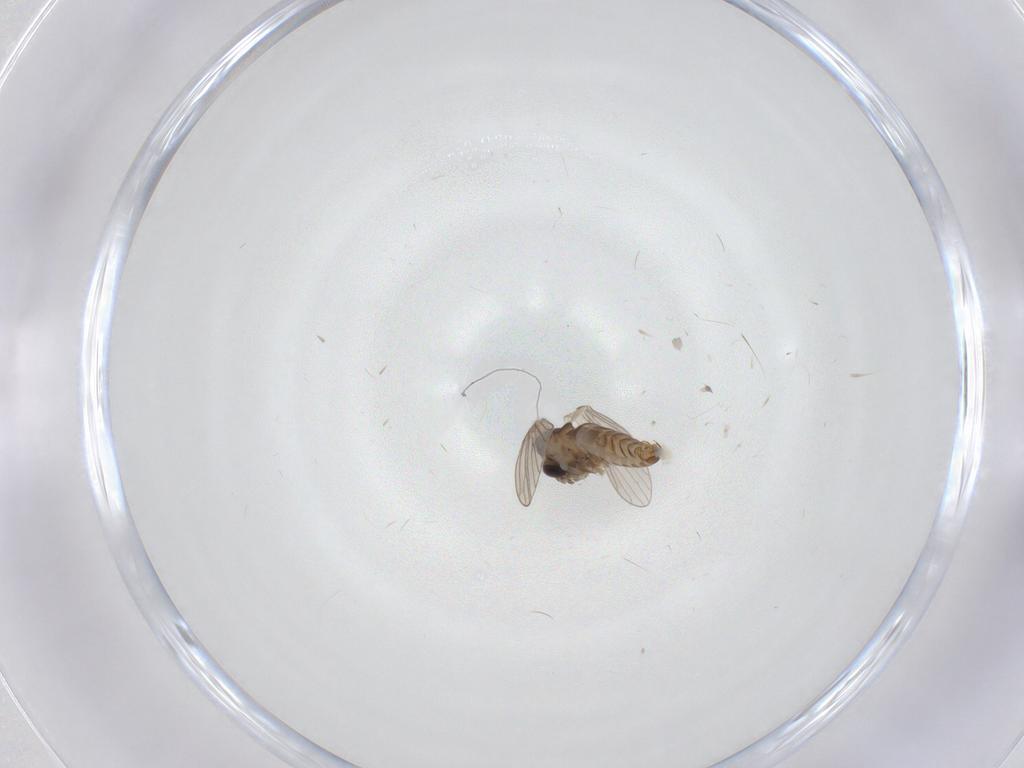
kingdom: Animalia
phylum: Arthropoda
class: Insecta
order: Diptera
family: Psychodidae
